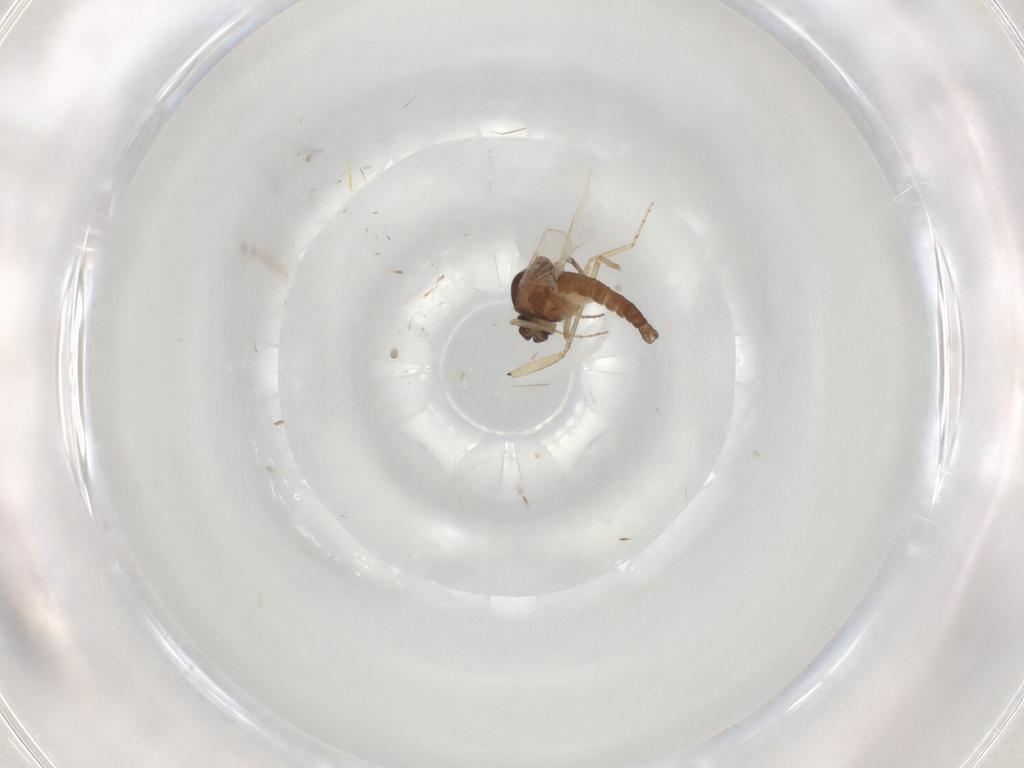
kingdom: Animalia
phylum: Arthropoda
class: Insecta
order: Diptera
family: Ceratopogonidae
